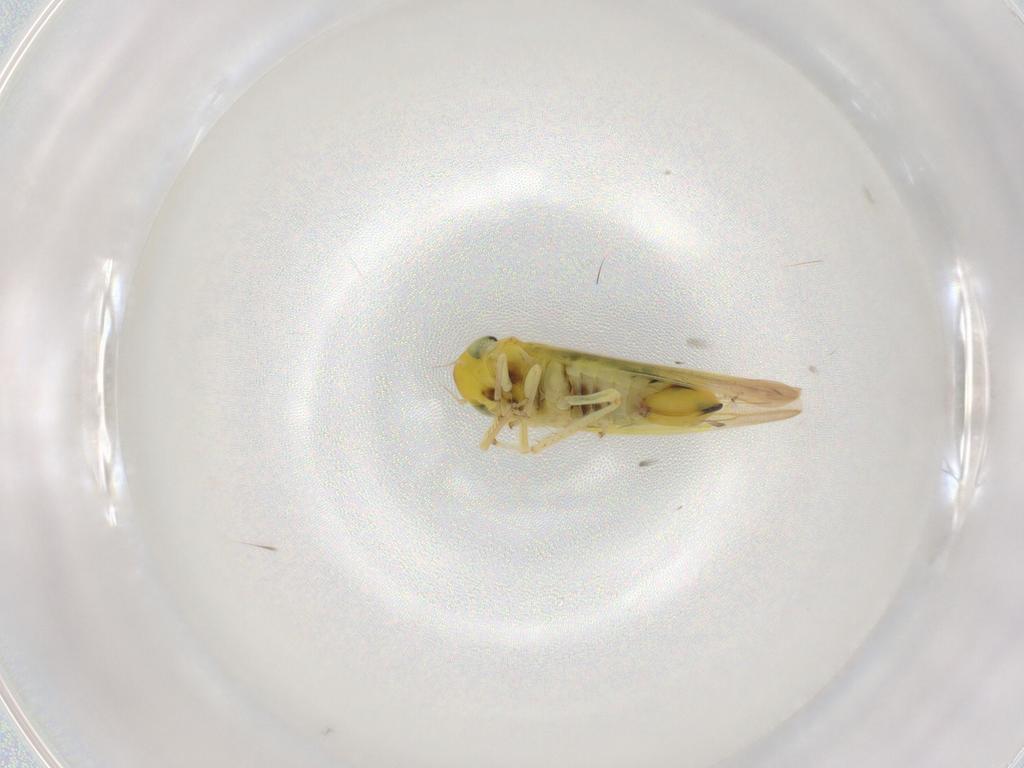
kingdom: Animalia
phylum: Arthropoda
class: Insecta
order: Hemiptera
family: Cicadellidae
